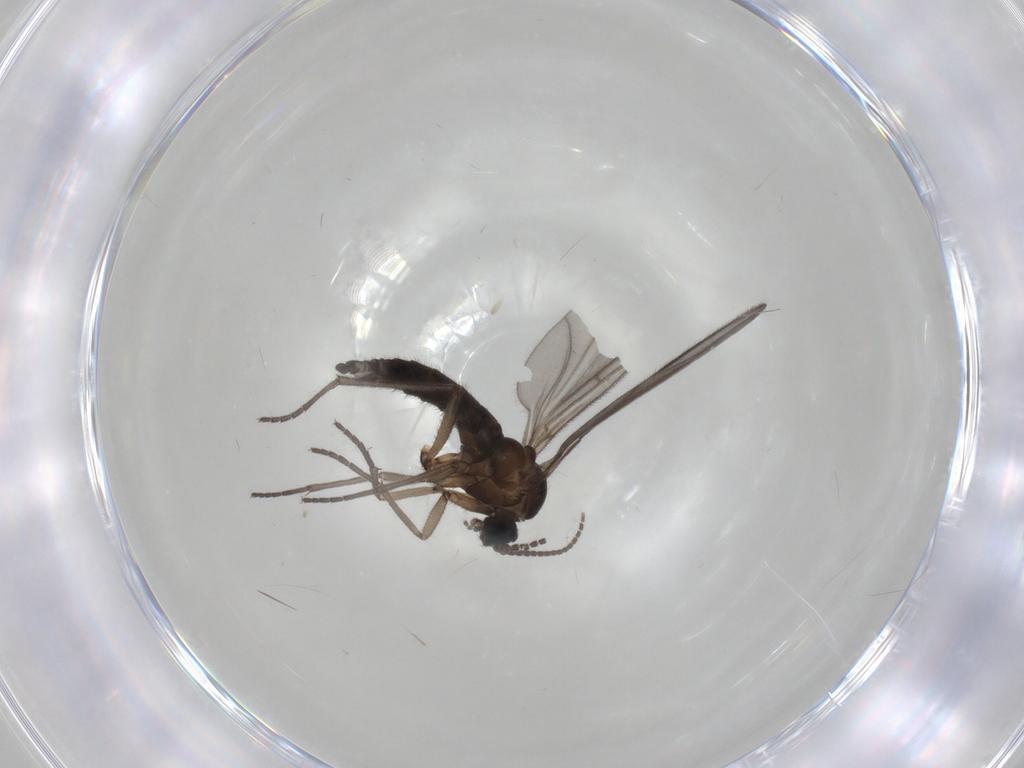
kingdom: Animalia
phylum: Arthropoda
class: Insecta
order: Diptera
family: Sciaridae
